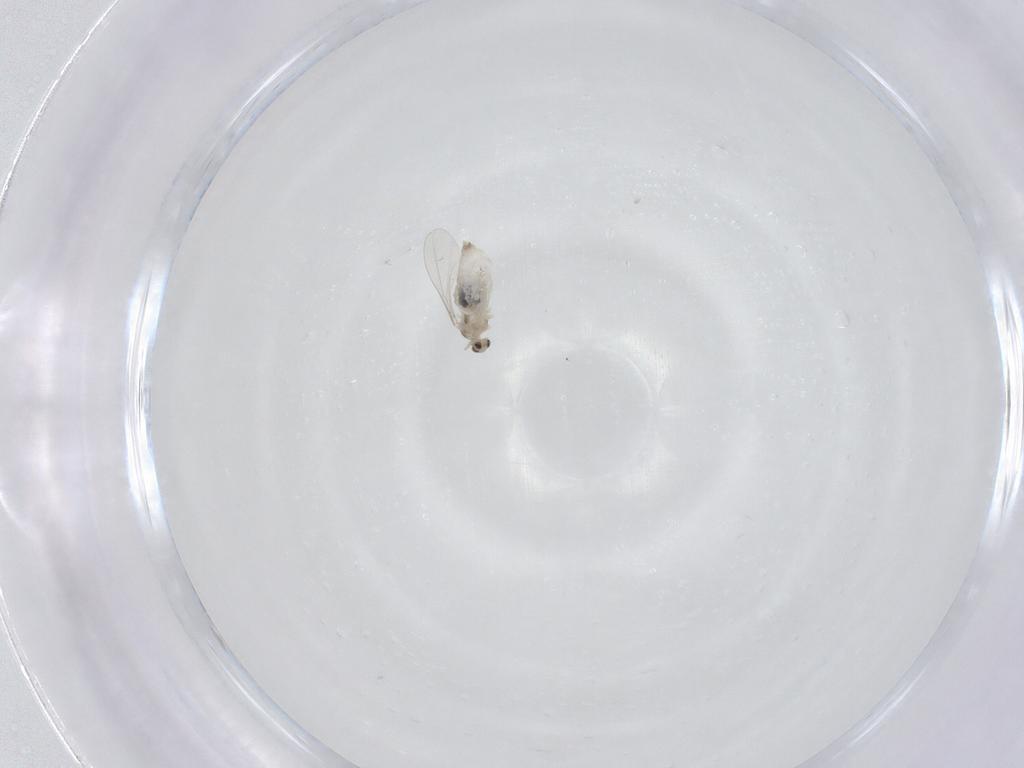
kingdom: Animalia
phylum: Arthropoda
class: Insecta
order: Diptera
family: Cecidomyiidae
